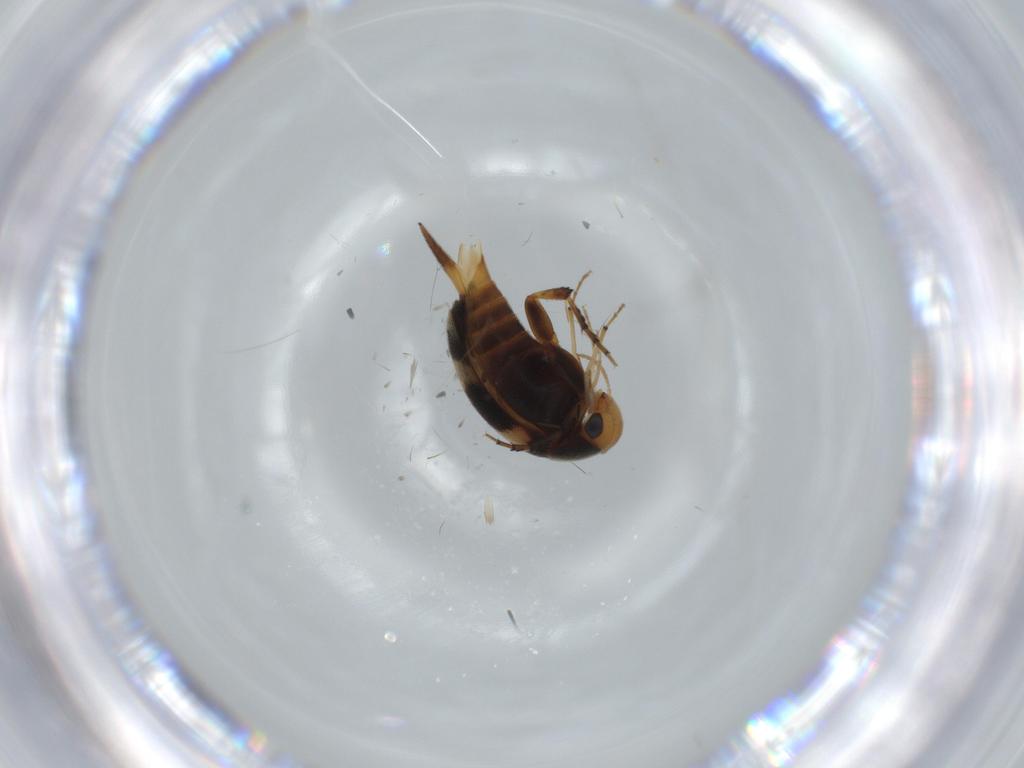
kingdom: Animalia
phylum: Arthropoda
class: Insecta
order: Coleoptera
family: Mordellidae
